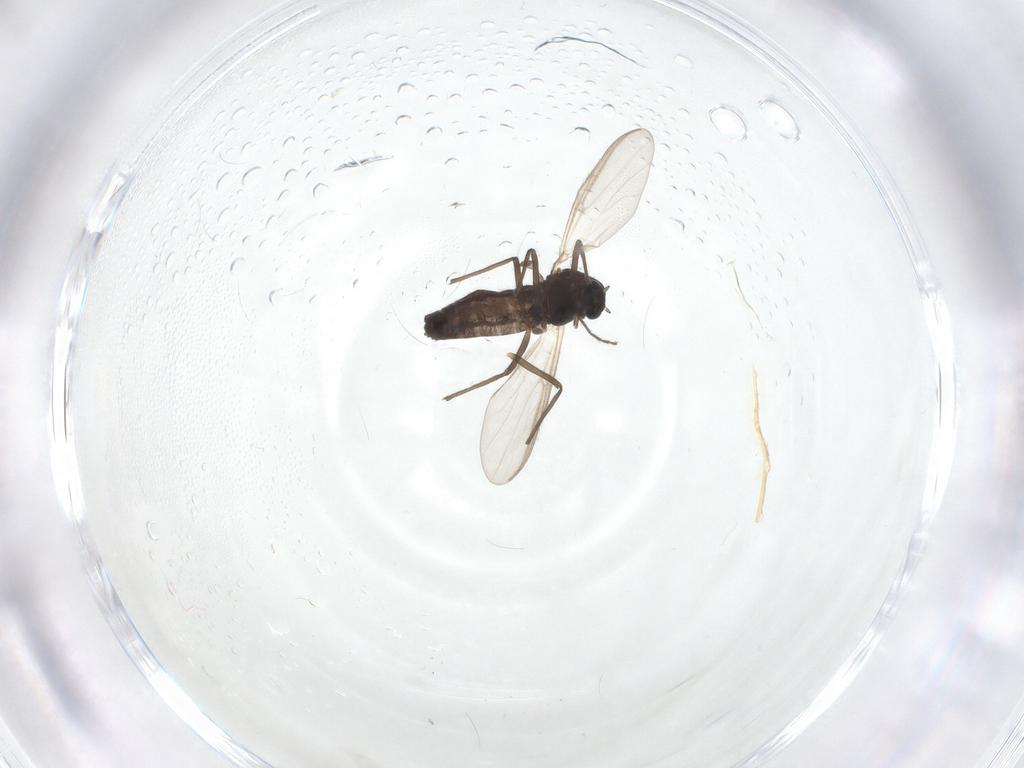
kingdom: Animalia
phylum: Arthropoda
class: Insecta
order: Diptera
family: Chironomidae
